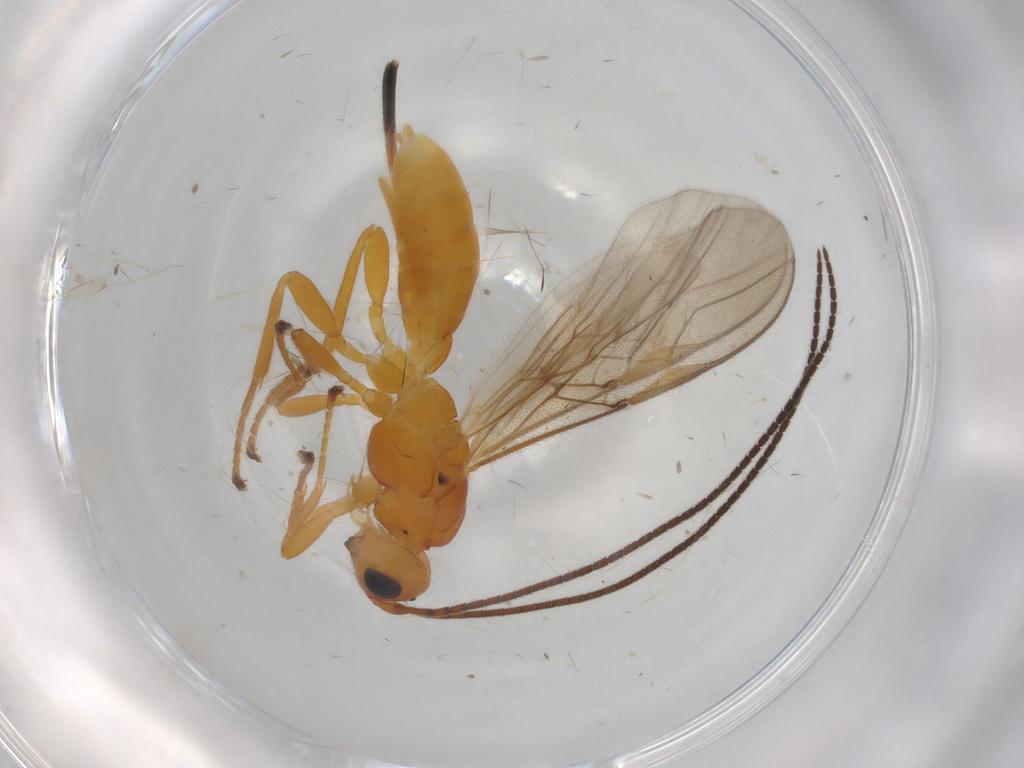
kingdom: Animalia
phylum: Arthropoda
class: Insecta
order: Hymenoptera
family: Braconidae
